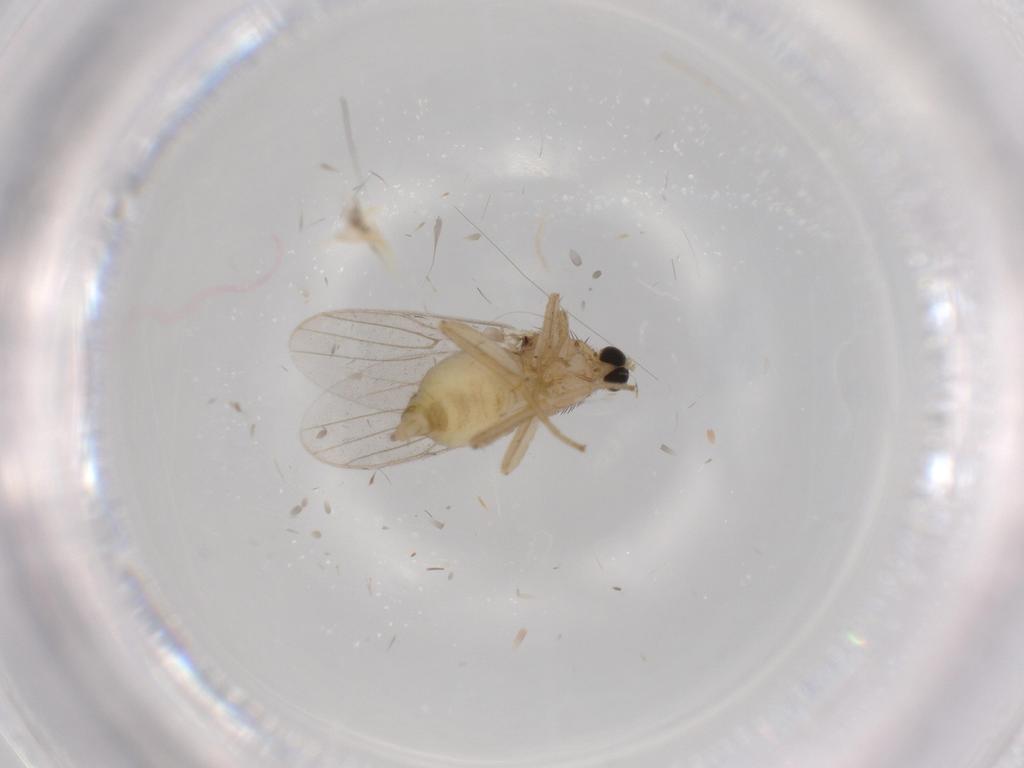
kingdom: Animalia
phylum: Arthropoda
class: Insecta
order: Diptera
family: Hybotidae
